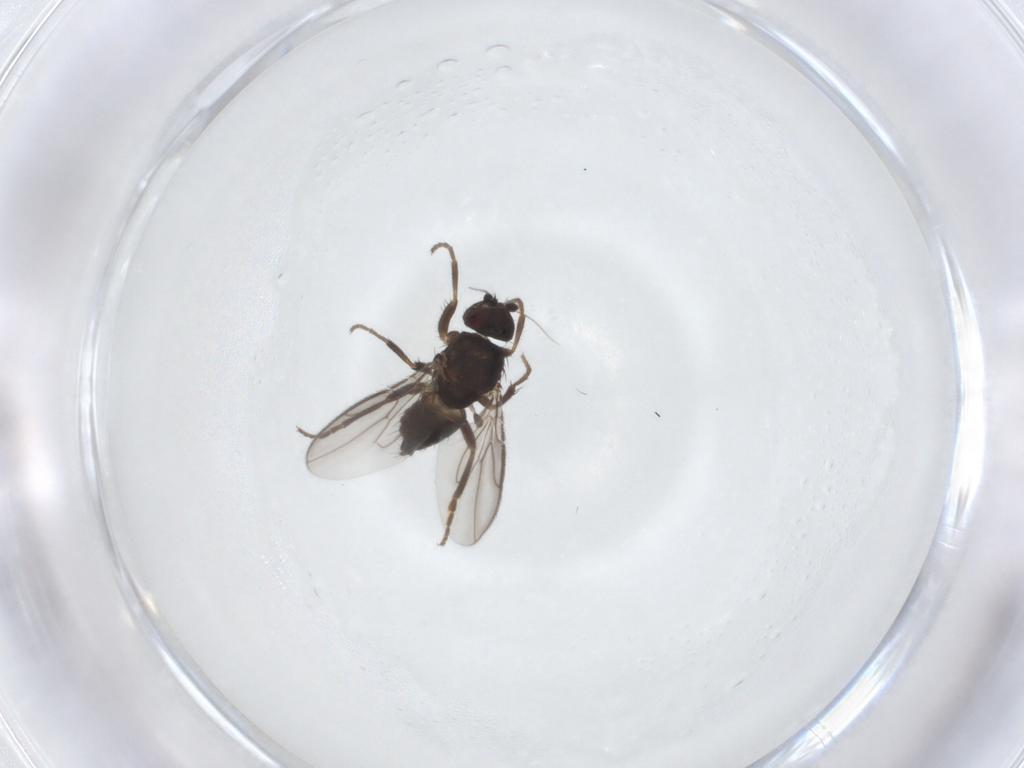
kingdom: Animalia
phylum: Arthropoda
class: Insecta
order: Diptera
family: Sphaeroceridae
